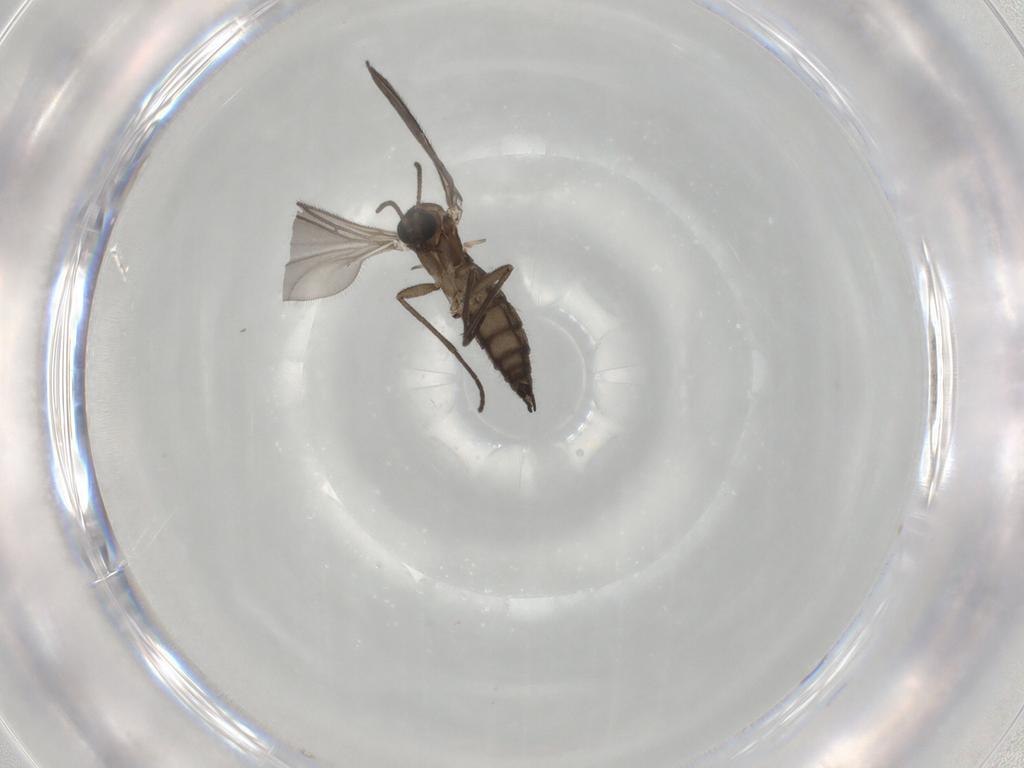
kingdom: Animalia
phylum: Arthropoda
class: Insecta
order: Diptera
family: Sciaridae
